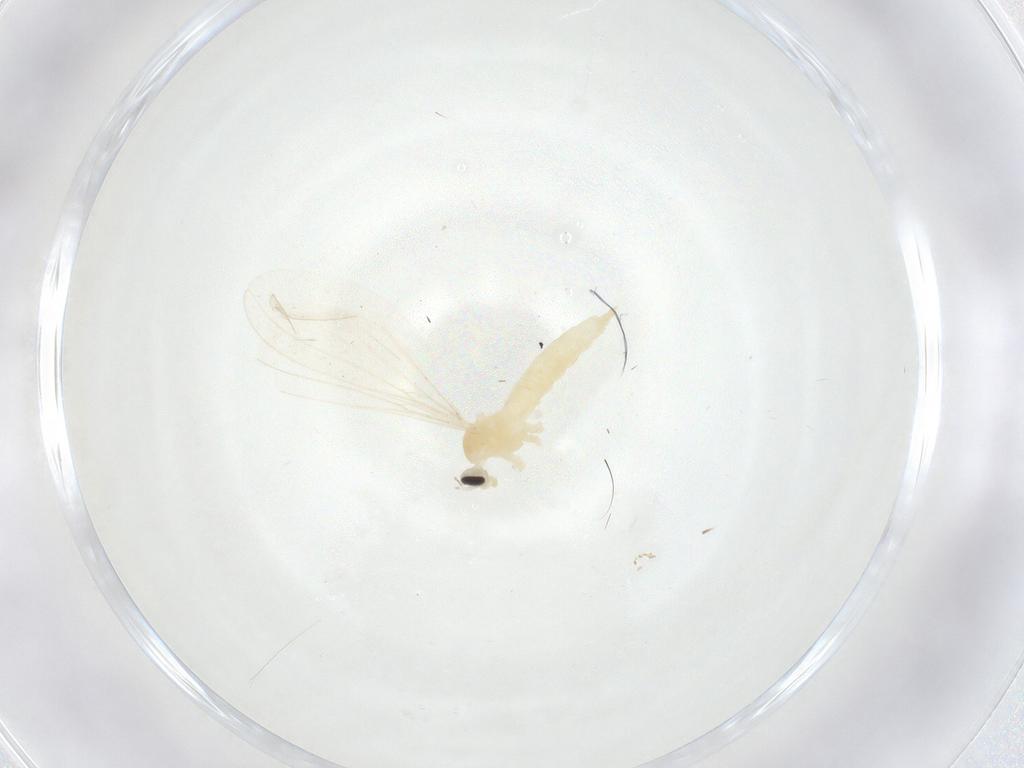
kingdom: Animalia
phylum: Arthropoda
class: Insecta
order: Diptera
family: Cecidomyiidae
